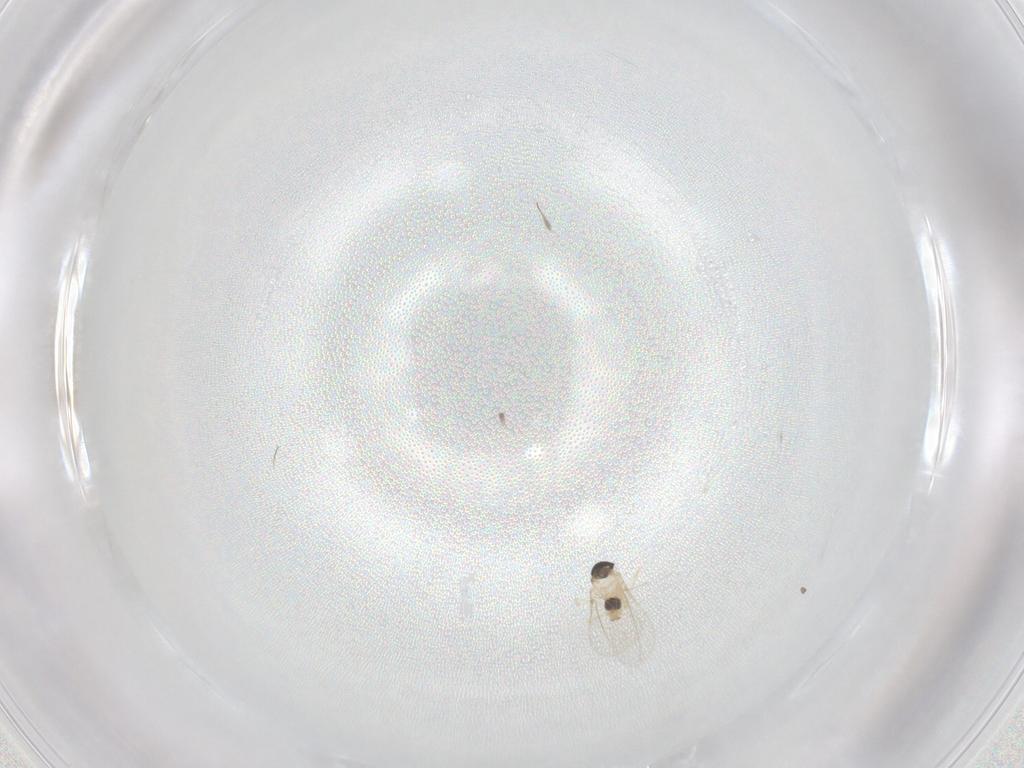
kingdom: Animalia
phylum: Arthropoda
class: Insecta
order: Diptera
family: Cecidomyiidae
